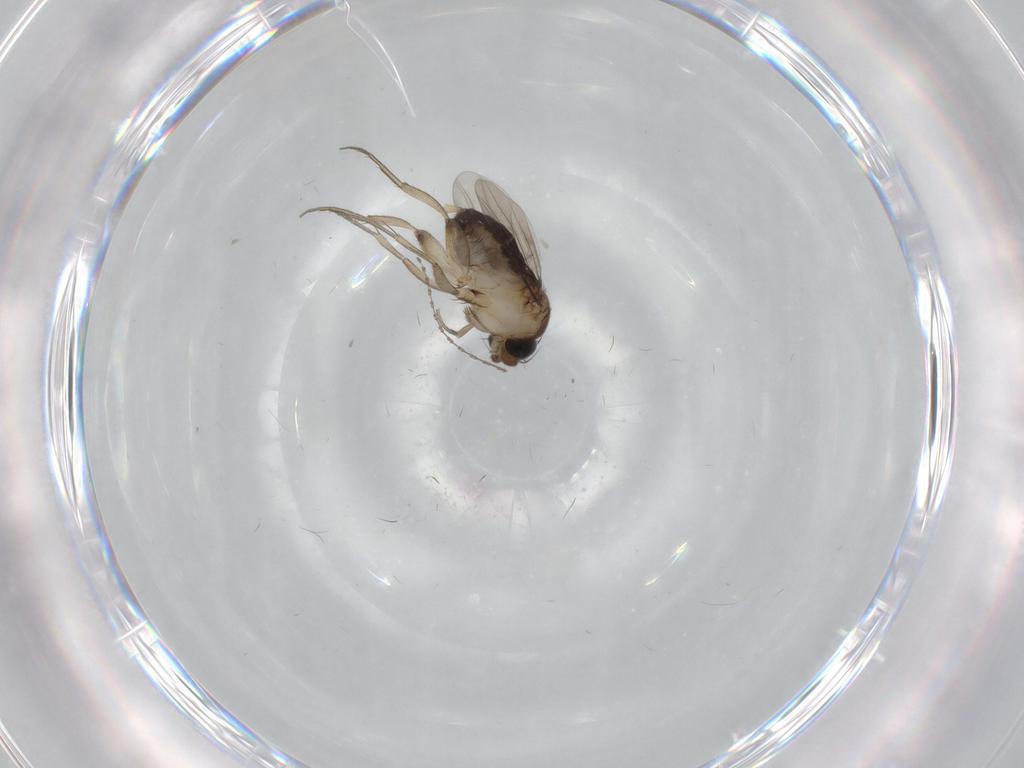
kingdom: Animalia
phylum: Arthropoda
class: Insecta
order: Diptera
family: Phoridae
